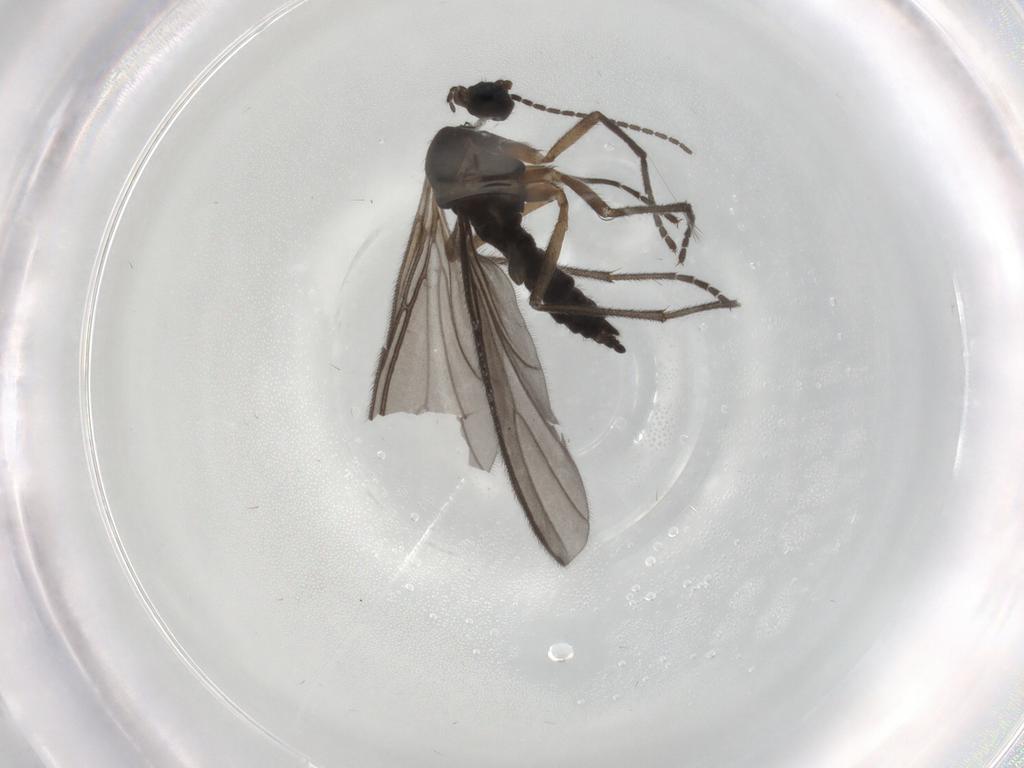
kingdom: Animalia
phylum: Arthropoda
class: Insecta
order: Diptera
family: Sciaridae
